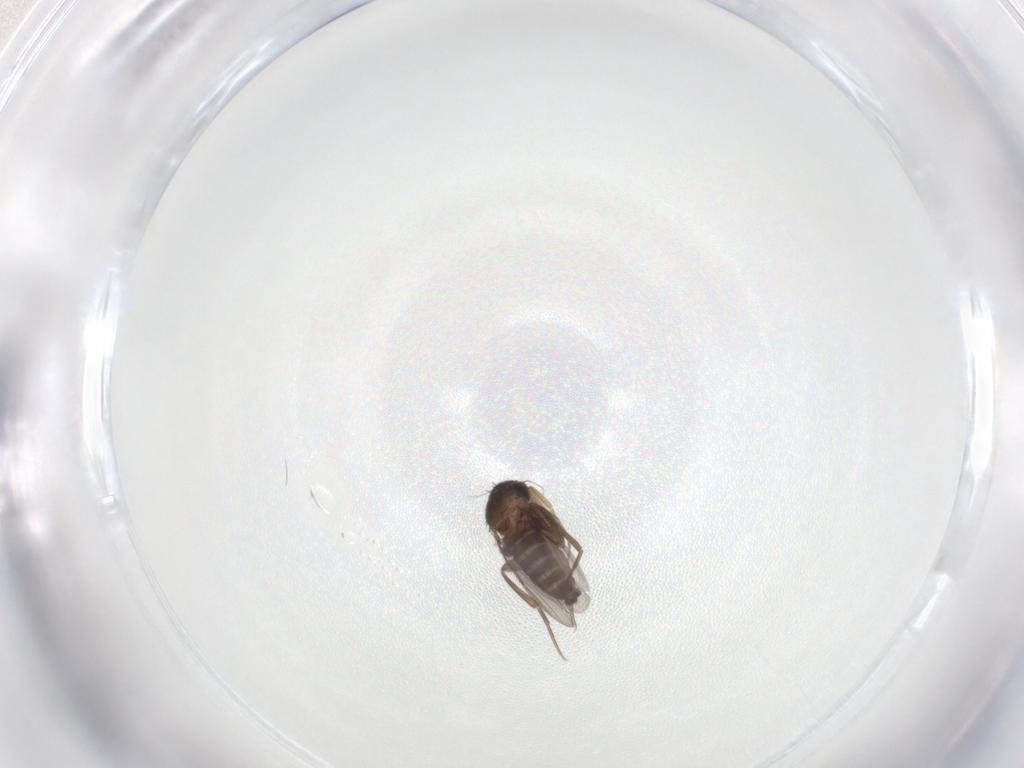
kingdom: Animalia
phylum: Arthropoda
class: Insecta
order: Diptera
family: Phoridae
